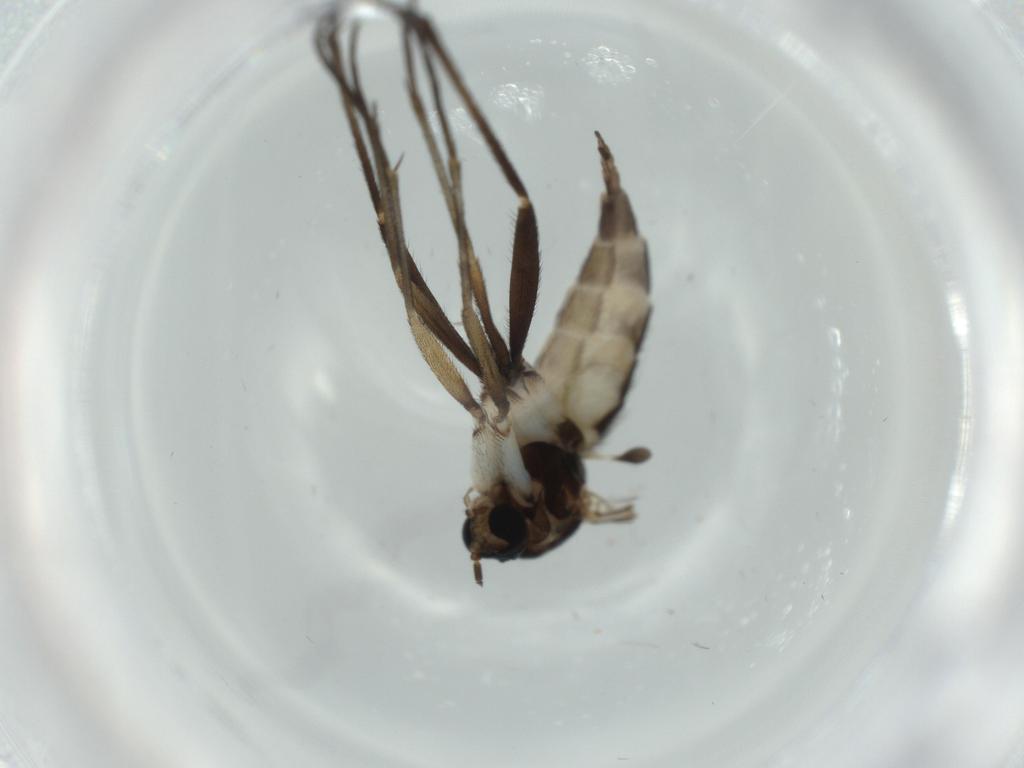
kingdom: Animalia
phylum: Arthropoda
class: Insecta
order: Diptera
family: Sciaridae
